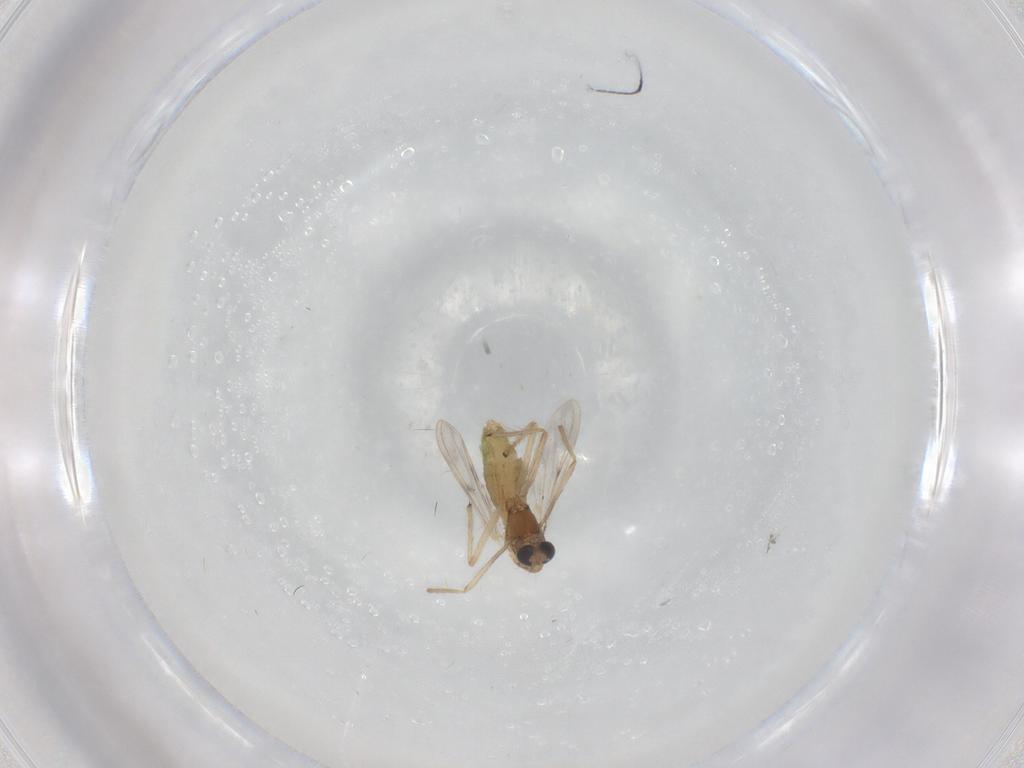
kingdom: Animalia
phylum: Arthropoda
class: Insecta
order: Diptera
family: Chironomidae
